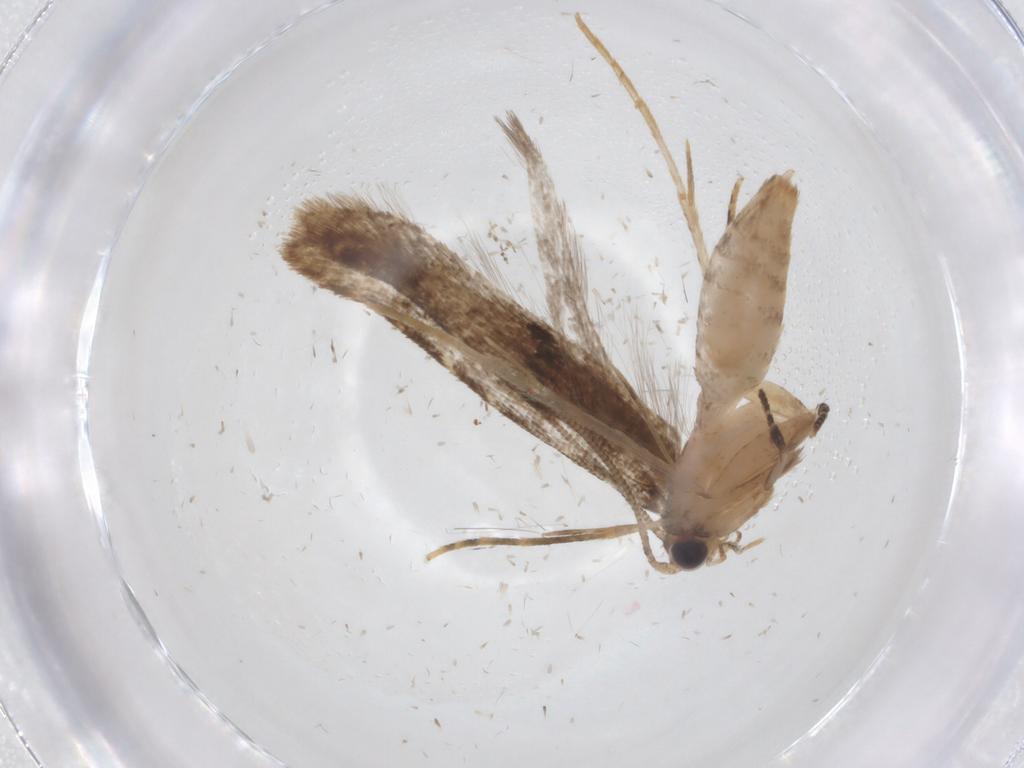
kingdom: Animalia
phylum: Arthropoda
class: Insecta
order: Lepidoptera
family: Tineidae
